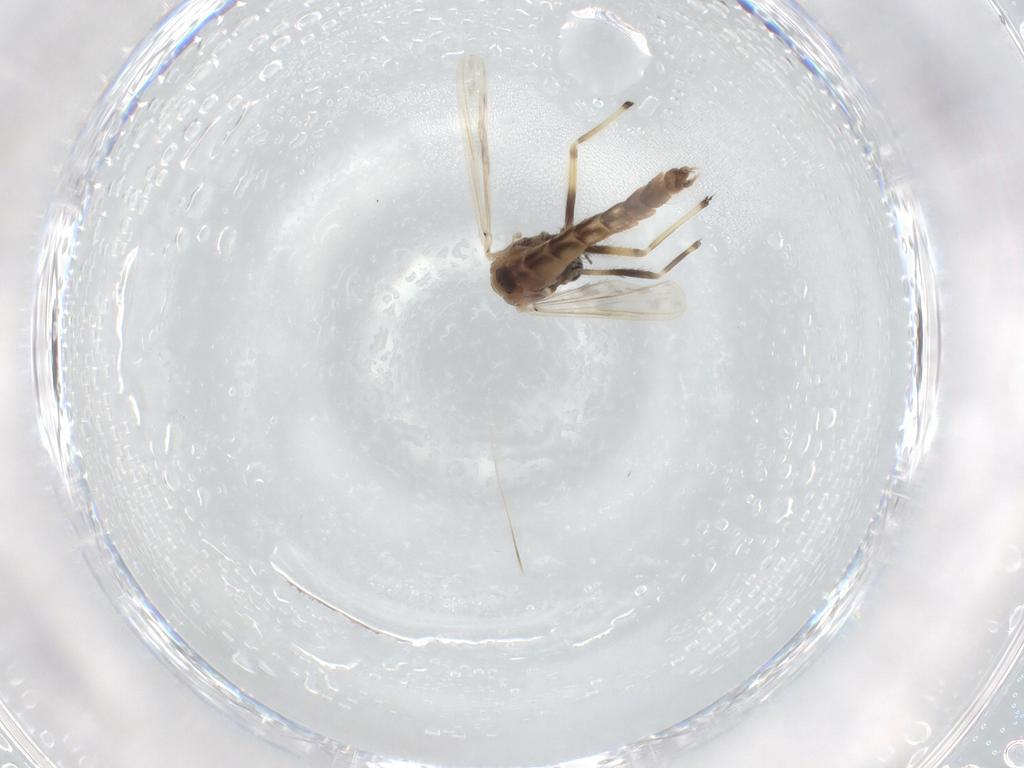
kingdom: Animalia
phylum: Arthropoda
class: Insecta
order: Diptera
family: Chironomidae
